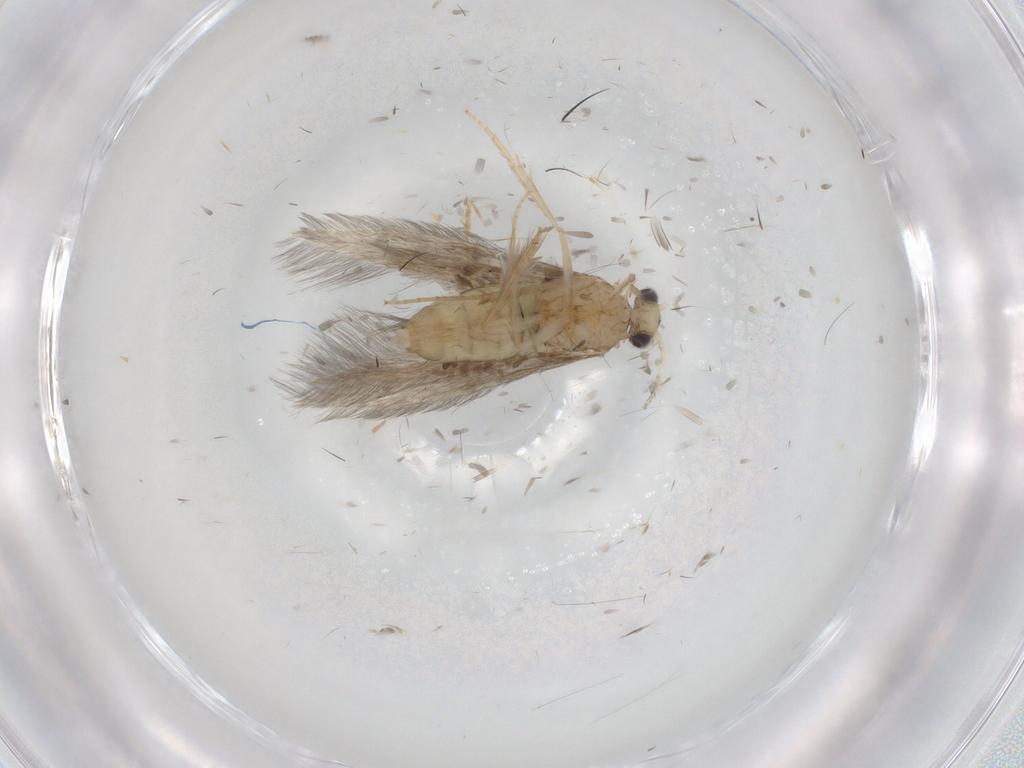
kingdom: Animalia
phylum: Arthropoda
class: Insecta
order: Trichoptera
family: Hydroptilidae
